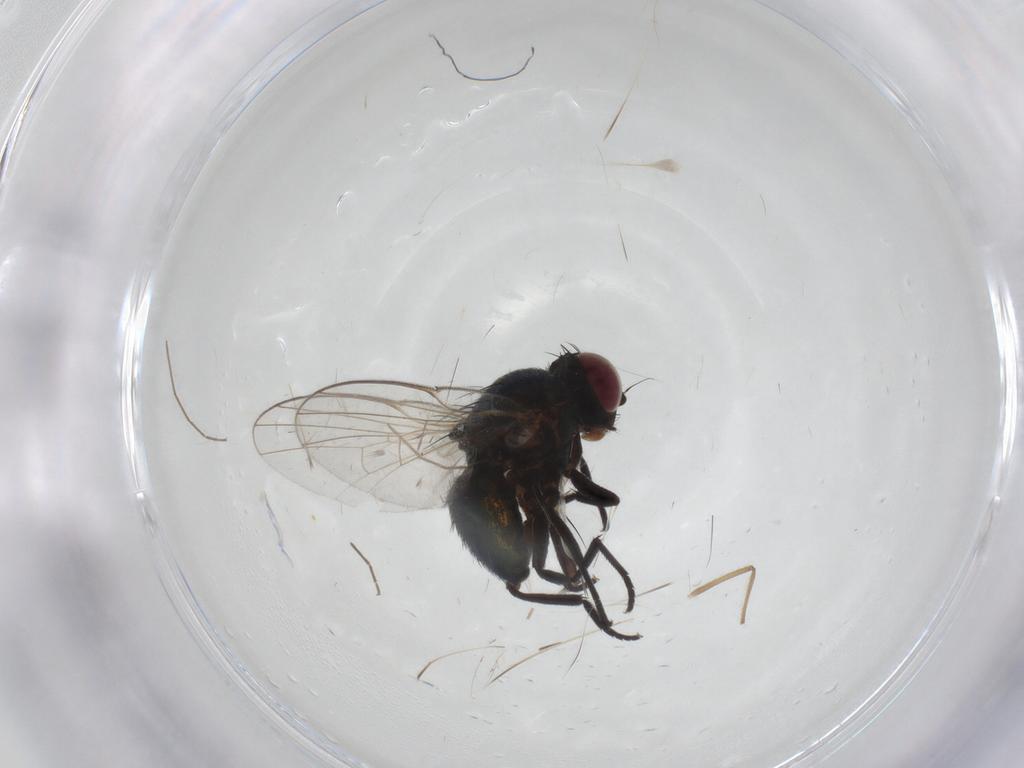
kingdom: Animalia
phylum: Arthropoda
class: Insecta
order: Diptera
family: Agromyzidae
